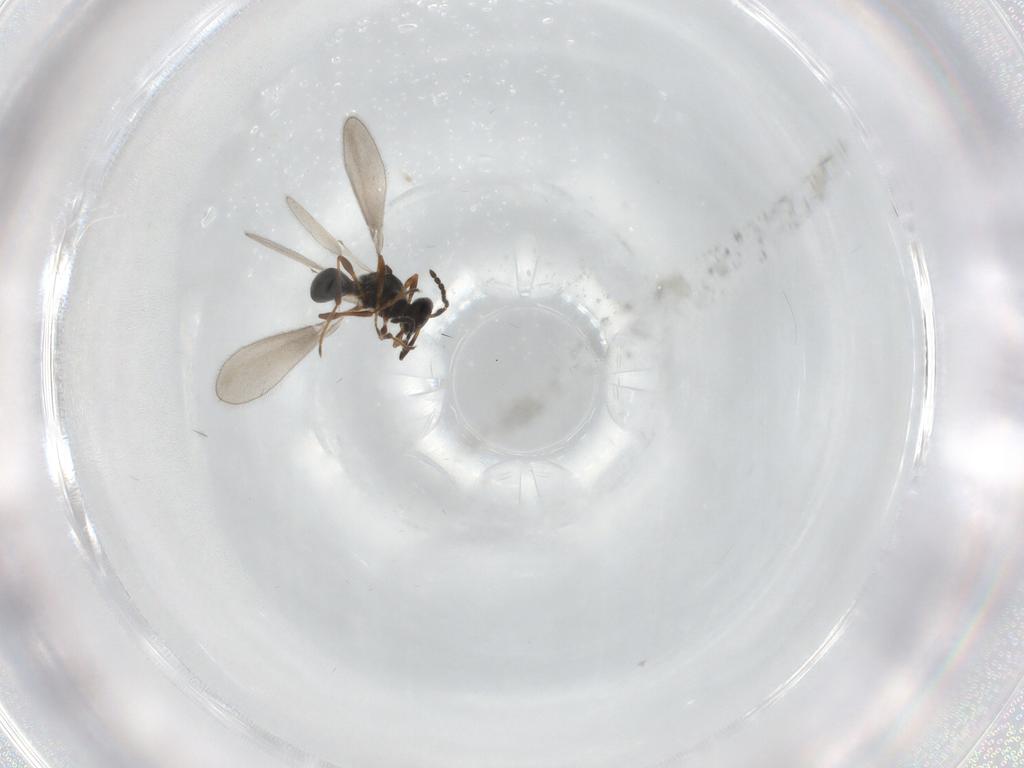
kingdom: Animalia
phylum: Arthropoda
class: Insecta
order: Hymenoptera
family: Platygastridae
